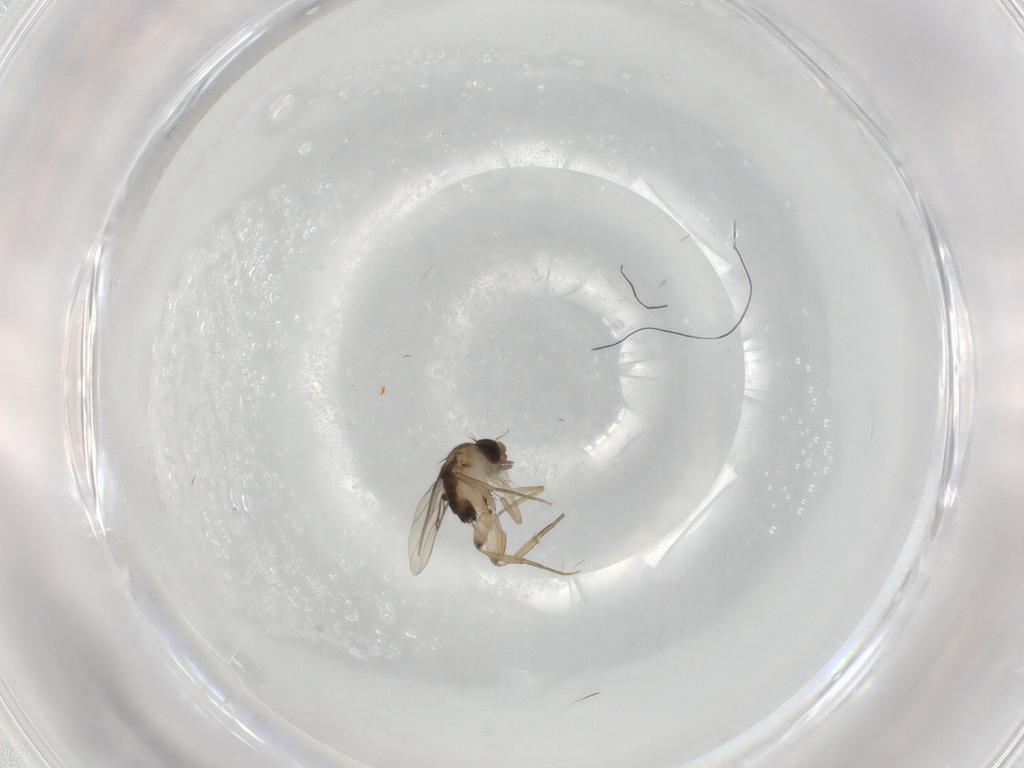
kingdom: Animalia
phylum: Arthropoda
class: Insecta
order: Diptera
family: Phoridae
